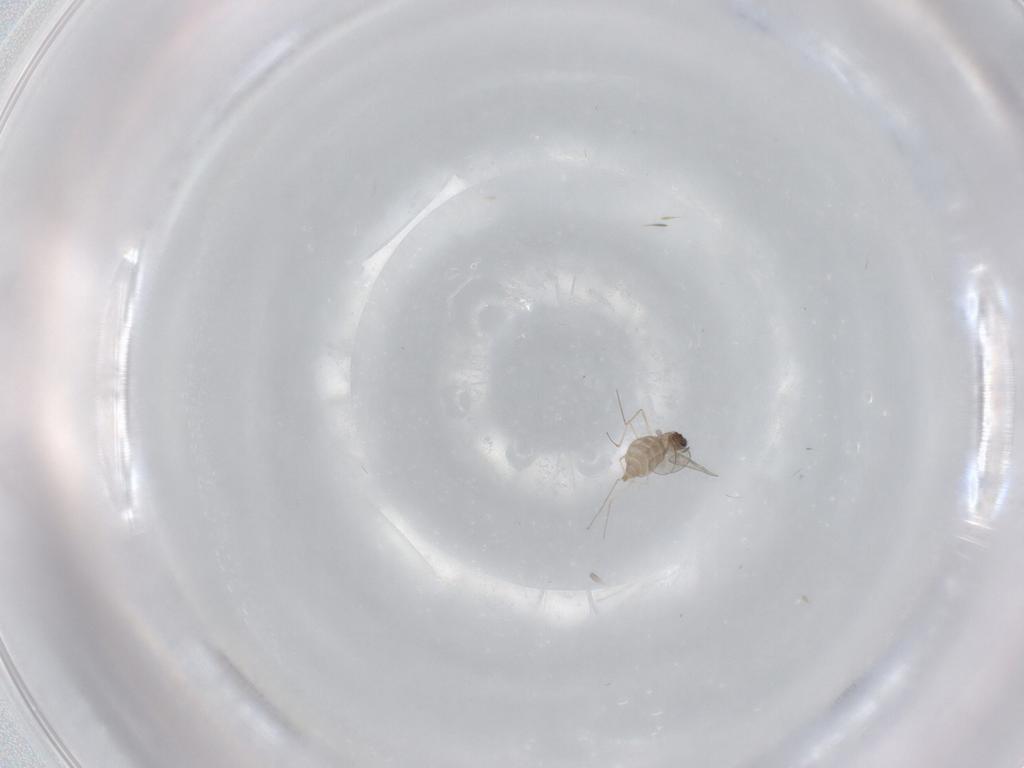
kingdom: Animalia
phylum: Arthropoda
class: Insecta
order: Diptera
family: Cecidomyiidae
